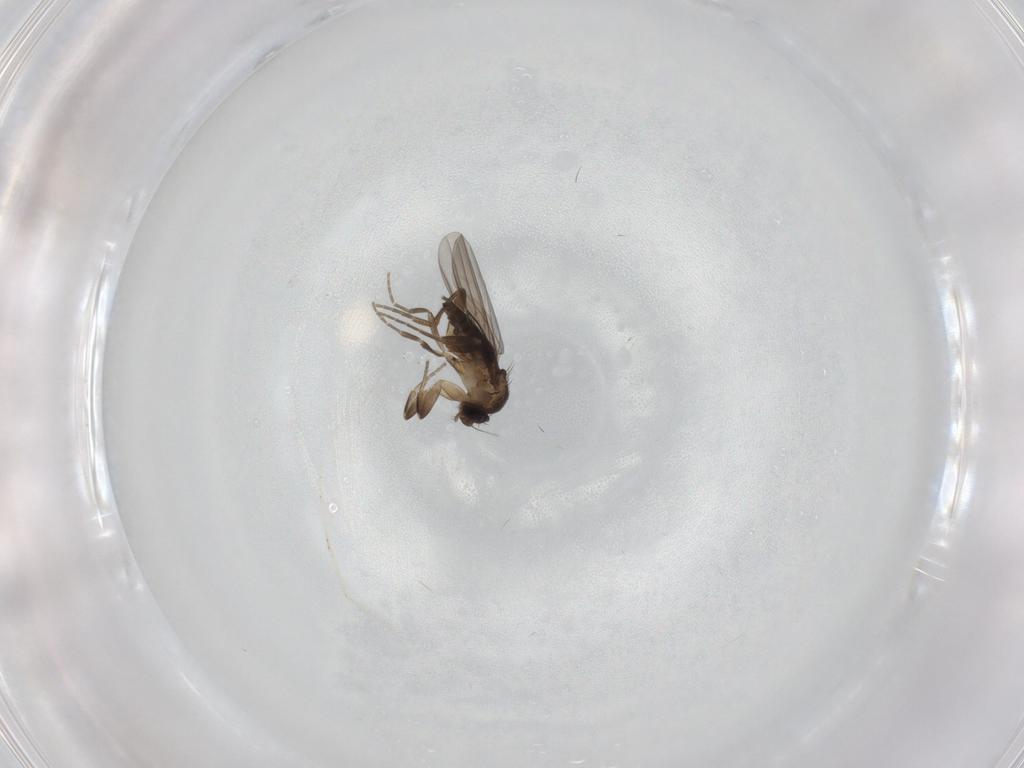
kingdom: Animalia
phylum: Arthropoda
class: Insecta
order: Diptera
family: Cecidomyiidae
